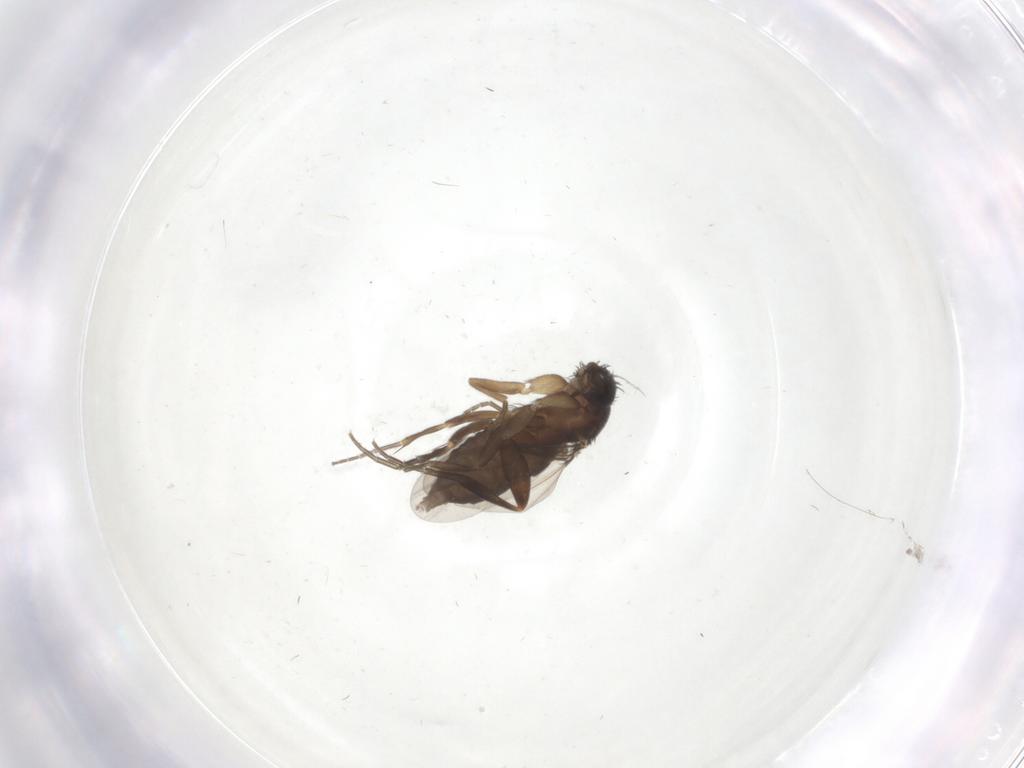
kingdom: Animalia
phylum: Arthropoda
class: Insecta
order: Diptera
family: Phoridae
